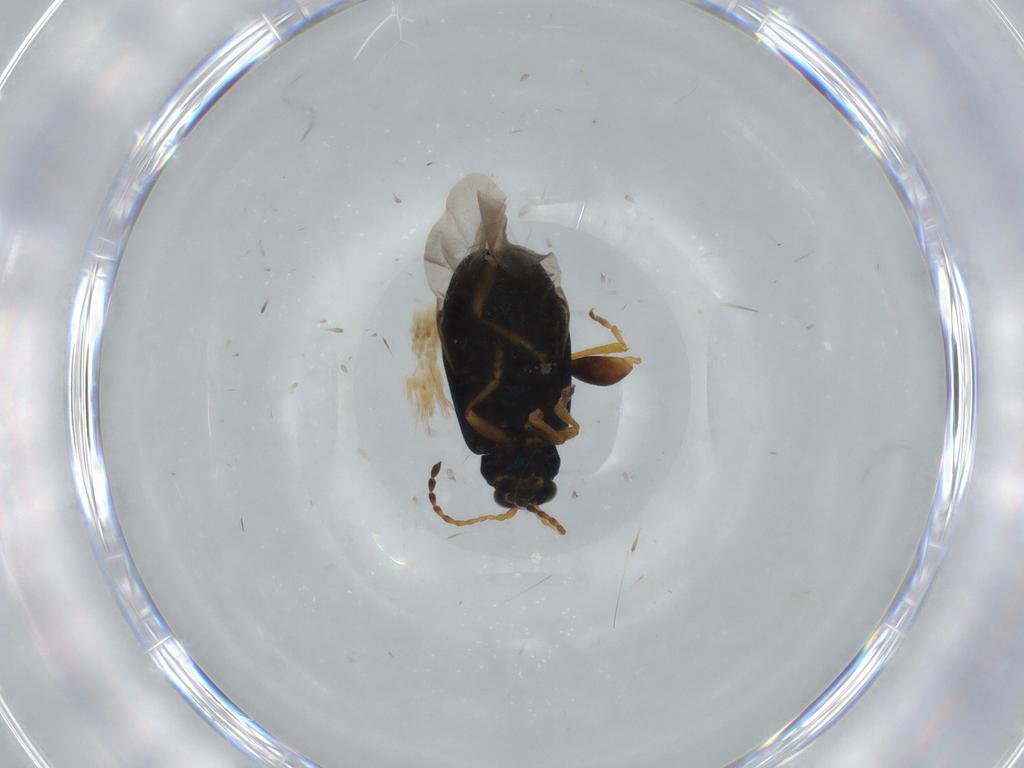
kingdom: Animalia
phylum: Arthropoda
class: Insecta
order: Coleoptera
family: Chrysomelidae
